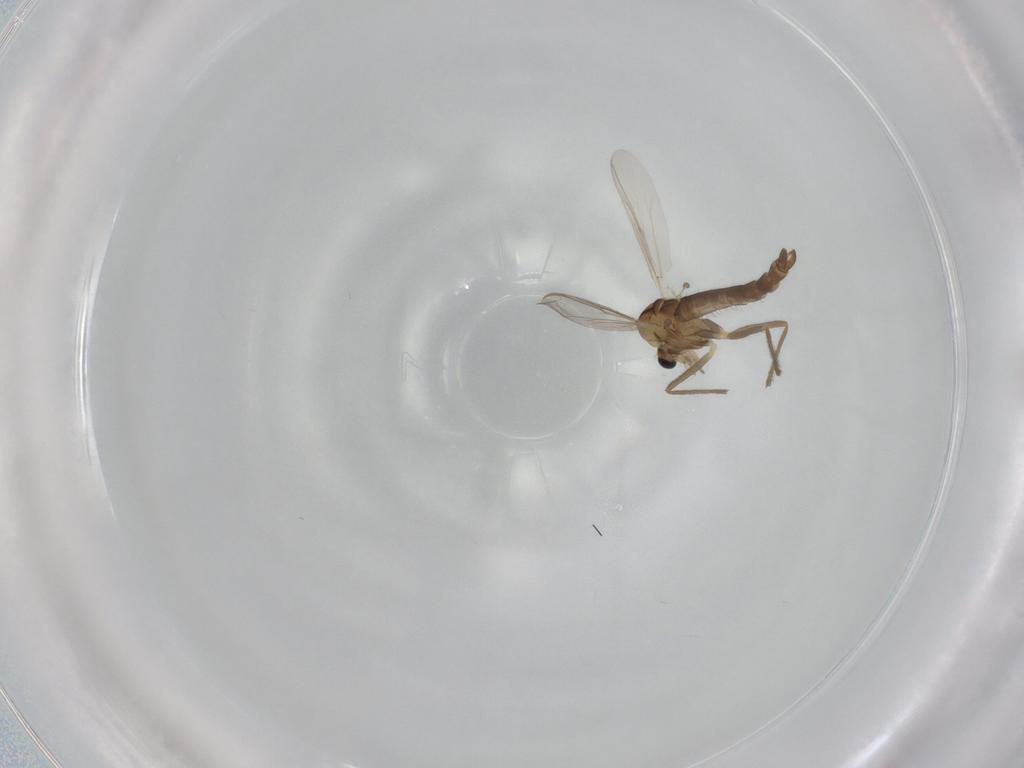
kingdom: Animalia
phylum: Arthropoda
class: Insecta
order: Diptera
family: Chironomidae
